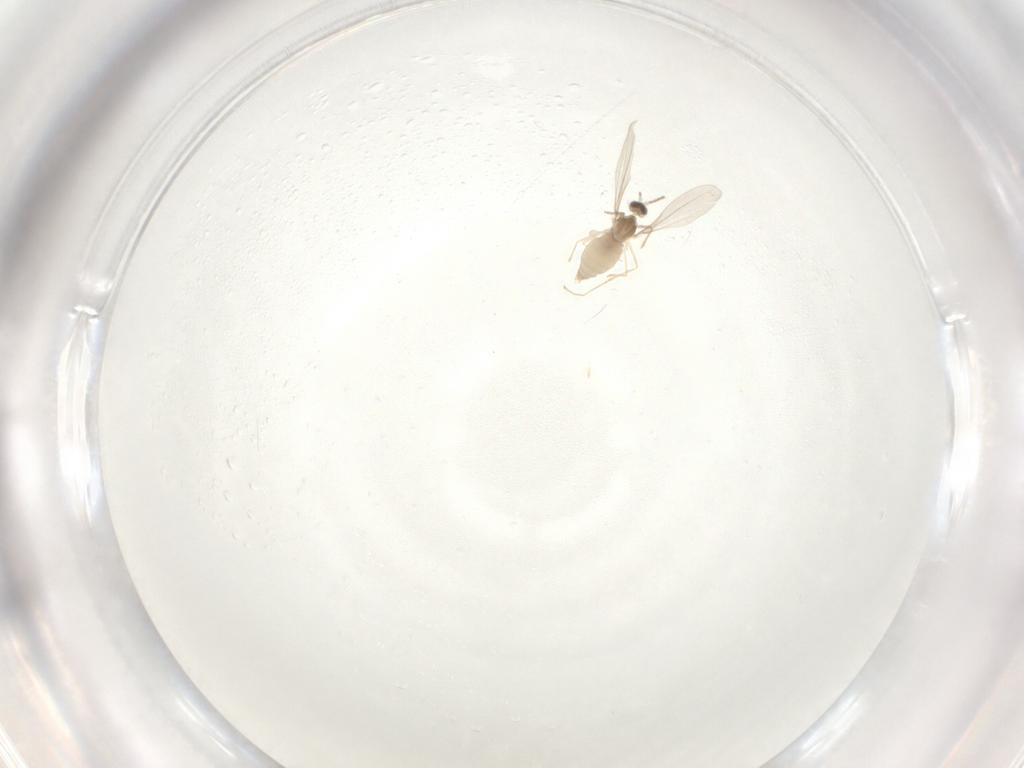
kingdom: Animalia
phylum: Arthropoda
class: Insecta
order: Diptera
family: Cecidomyiidae
